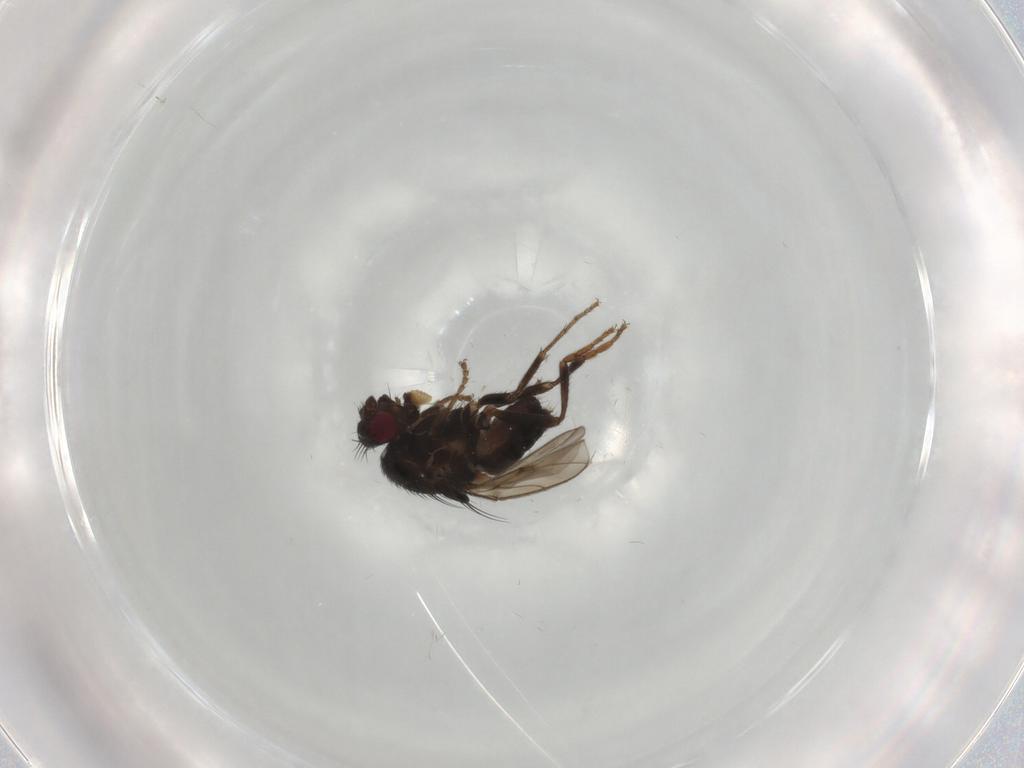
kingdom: Animalia
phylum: Arthropoda
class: Insecta
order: Diptera
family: Sphaeroceridae
